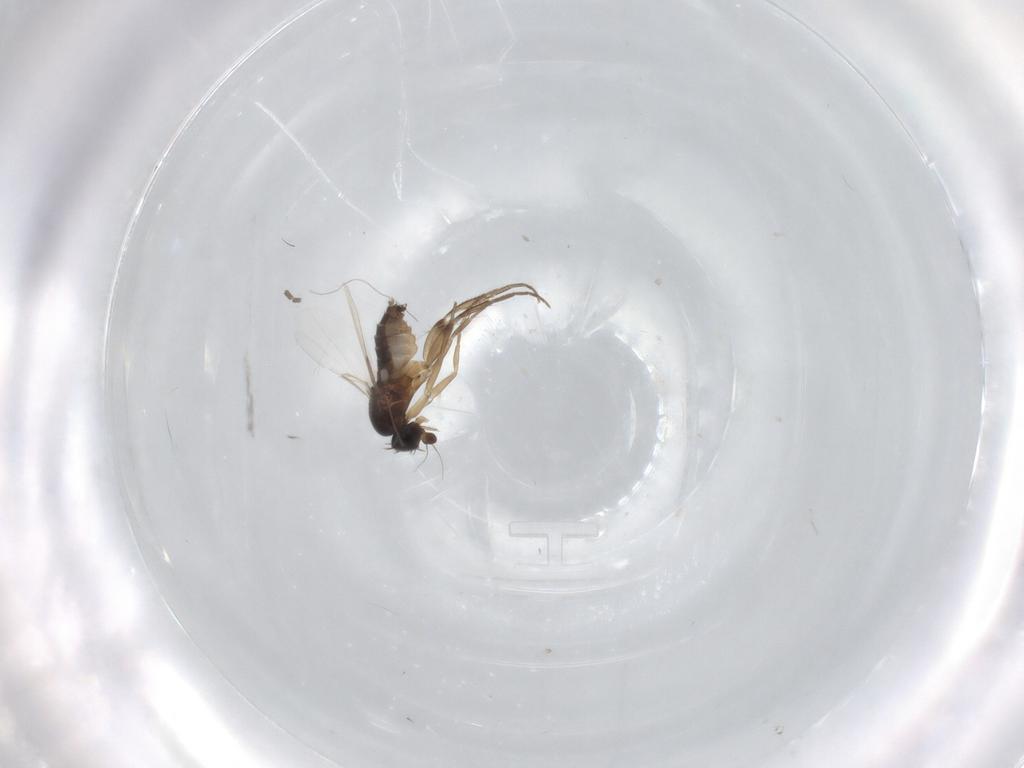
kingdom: Animalia
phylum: Arthropoda
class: Insecta
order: Diptera
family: Phoridae
